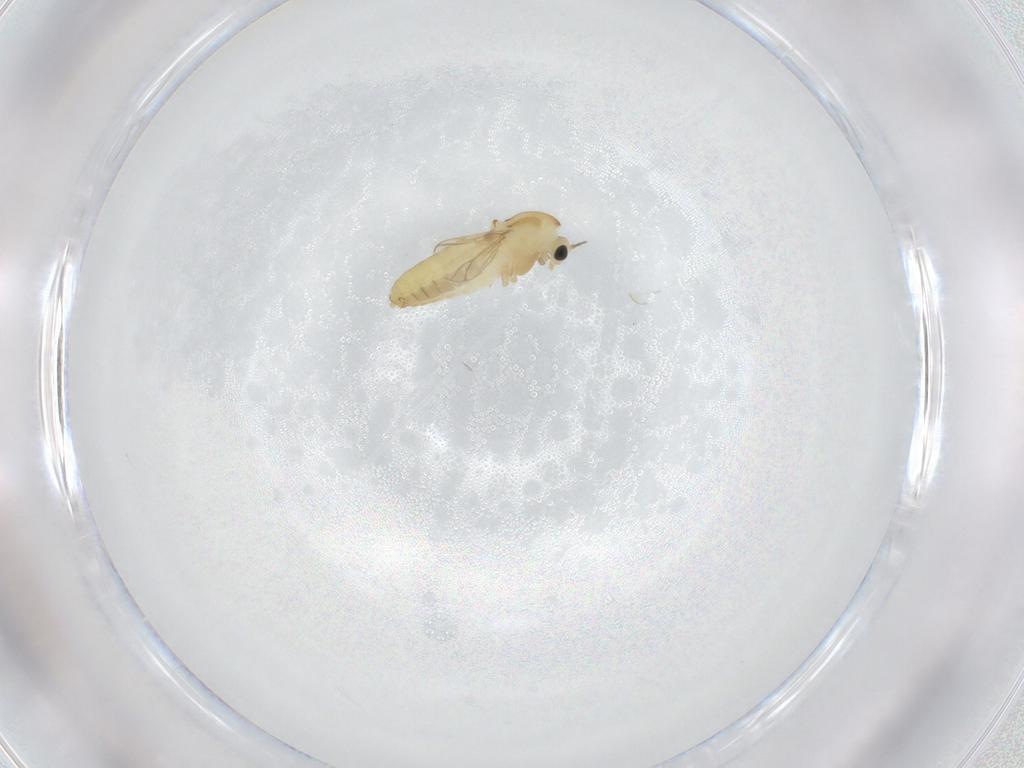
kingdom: Animalia
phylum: Arthropoda
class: Insecta
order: Diptera
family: Chironomidae
